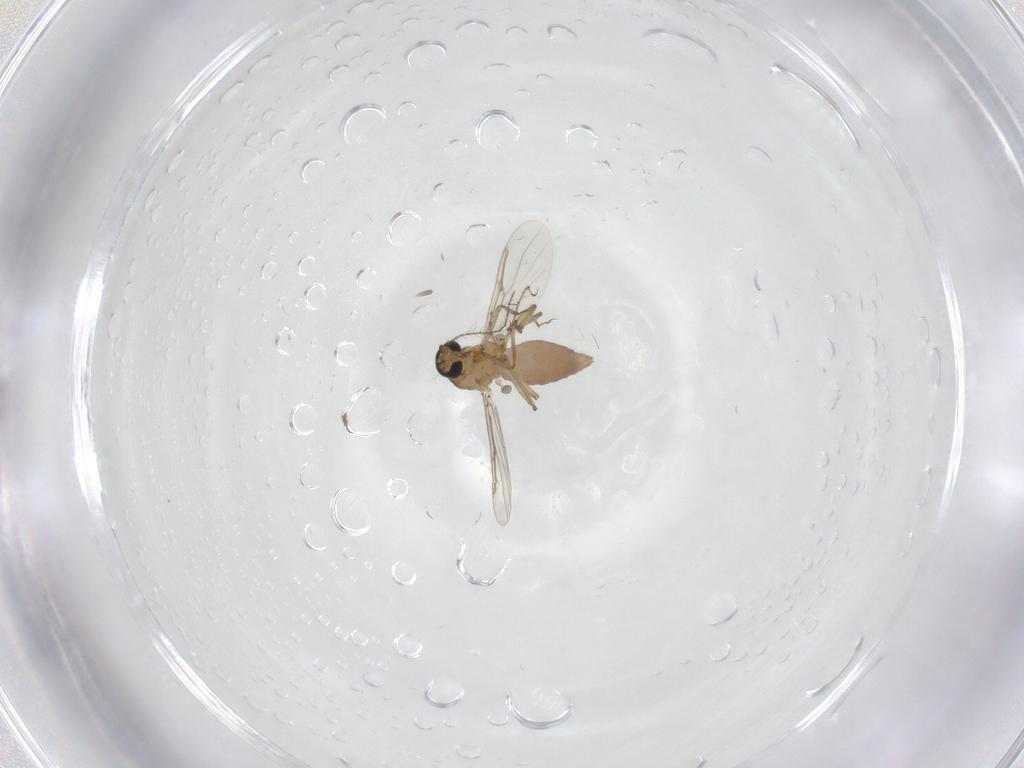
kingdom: Animalia
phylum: Arthropoda
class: Insecta
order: Diptera
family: Ceratopogonidae
